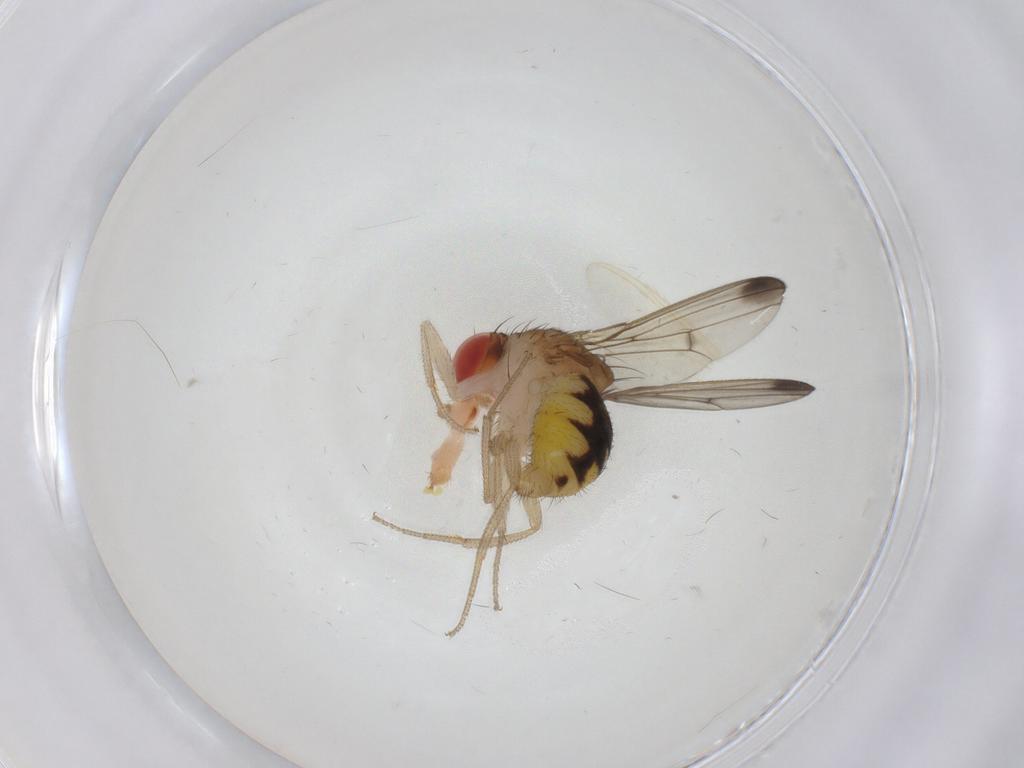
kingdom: Animalia
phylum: Arthropoda
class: Insecta
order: Diptera
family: Drosophilidae
